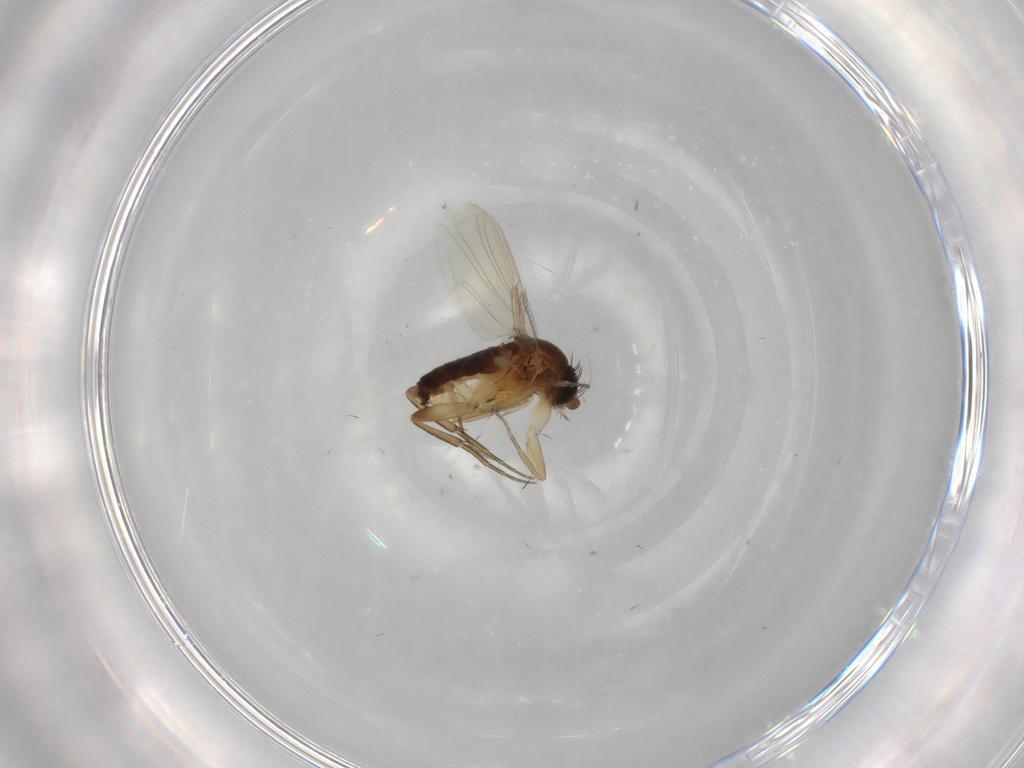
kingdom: Animalia
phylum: Arthropoda
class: Insecta
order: Diptera
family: Phoridae
